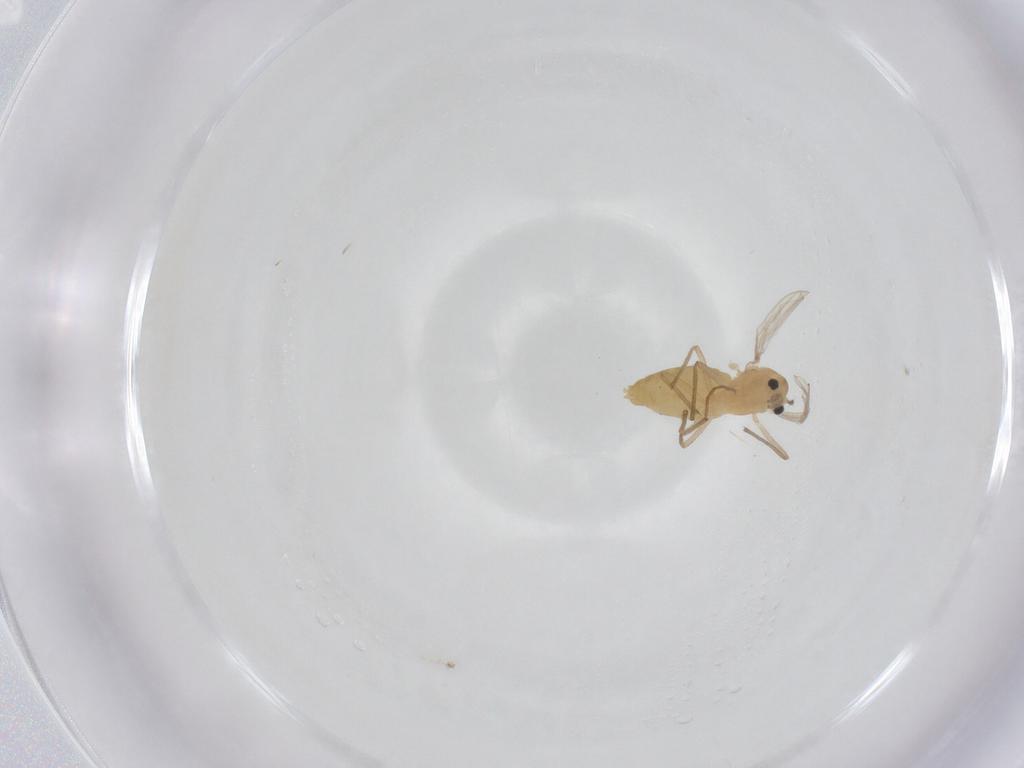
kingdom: Animalia
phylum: Arthropoda
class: Insecta
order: Diptera
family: Chironomidae
